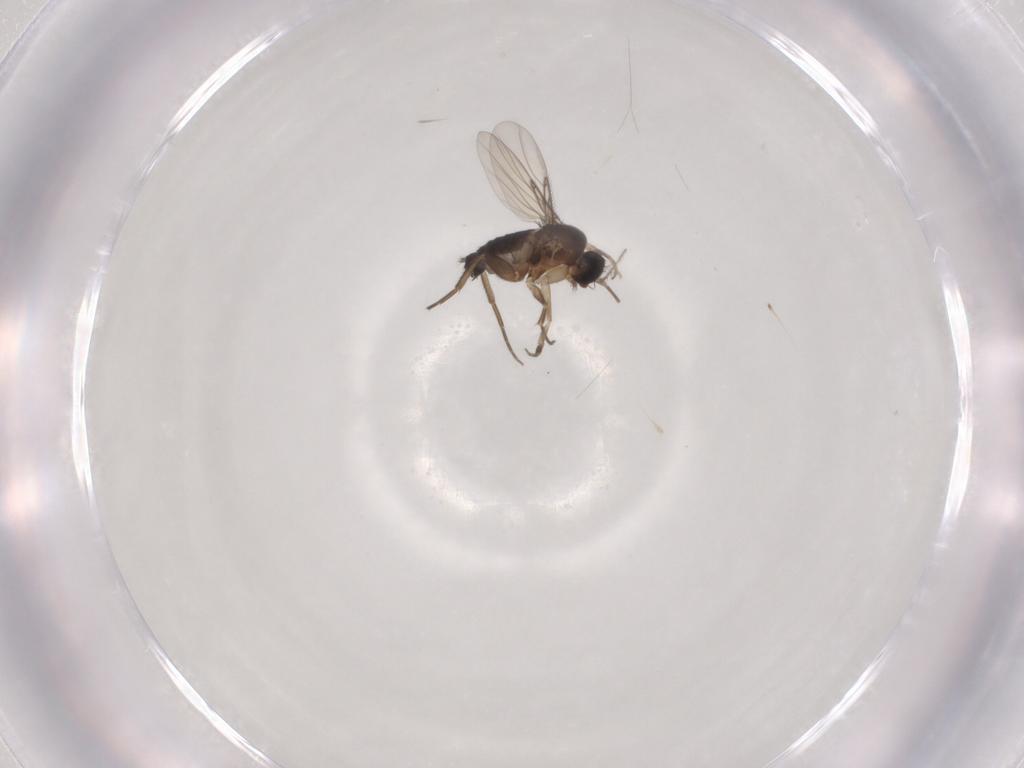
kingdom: Animalia
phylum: Arthropoda
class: Insecta
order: Diptera
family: Phoridae
